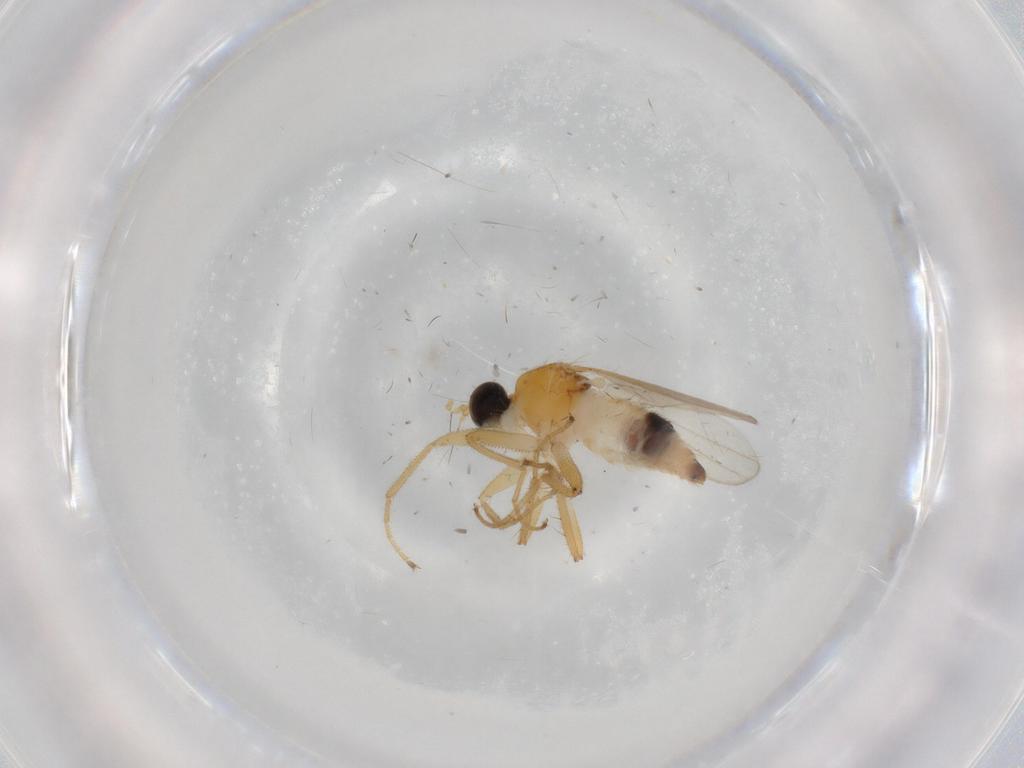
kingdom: Animalia
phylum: Arthropoda
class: Insecta
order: Diptera
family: Hybotidae
